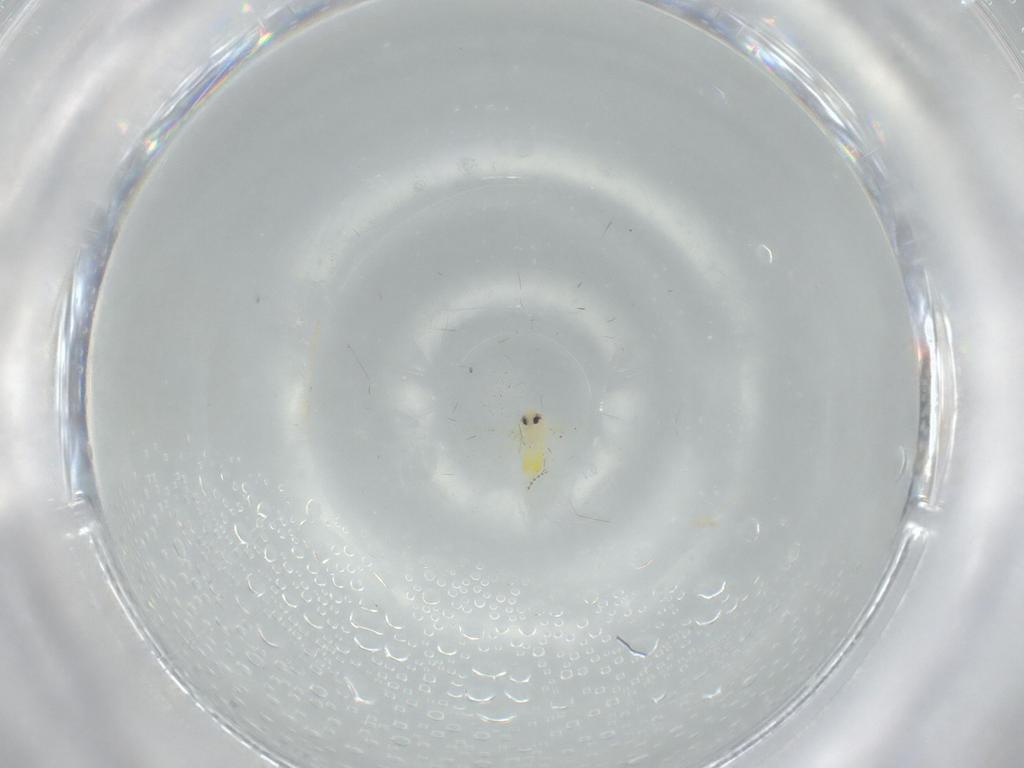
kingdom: Animalia
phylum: Arthropoda
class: Insecta
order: Hemiptera
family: Aleyrodidae
